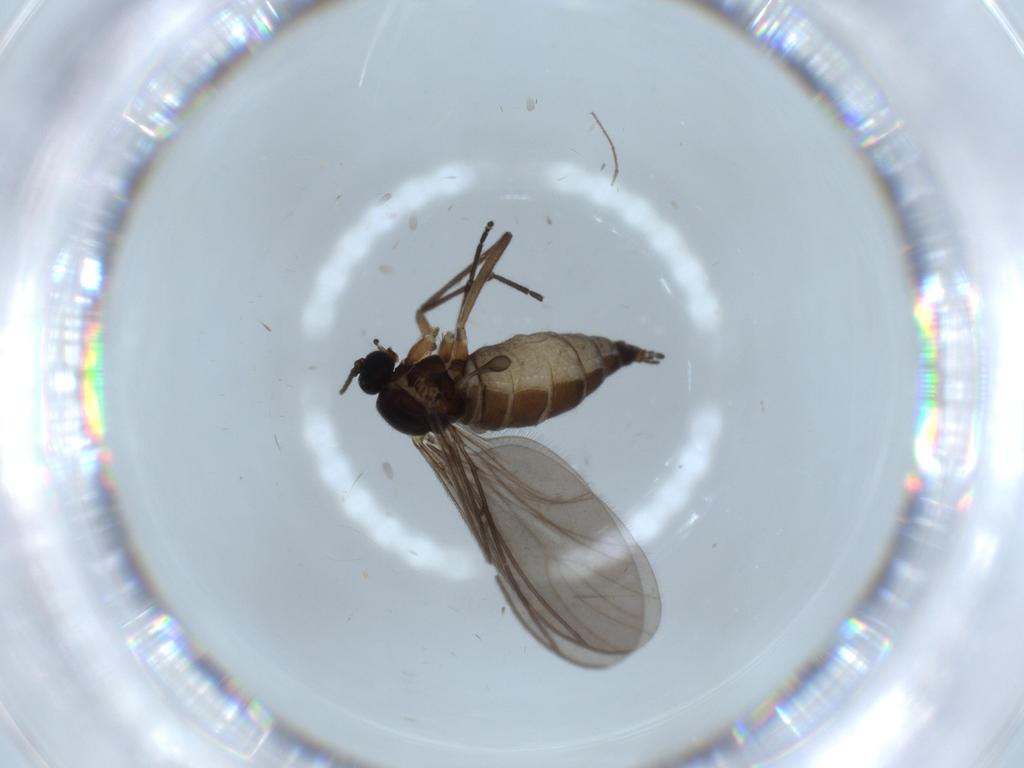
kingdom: Animalia
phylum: Arthropoda
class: Insecta
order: Diptera
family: Sciaridae
